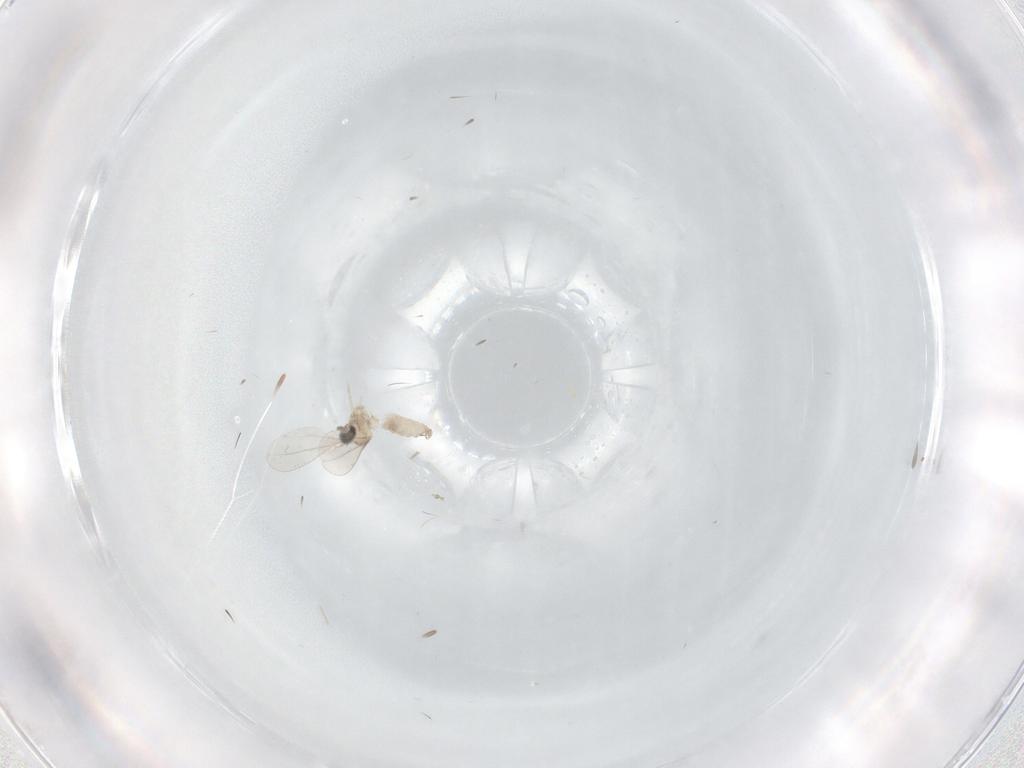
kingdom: Animalia
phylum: Arthropoda
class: Insecta
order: Diptera
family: Cecidomyiidae
